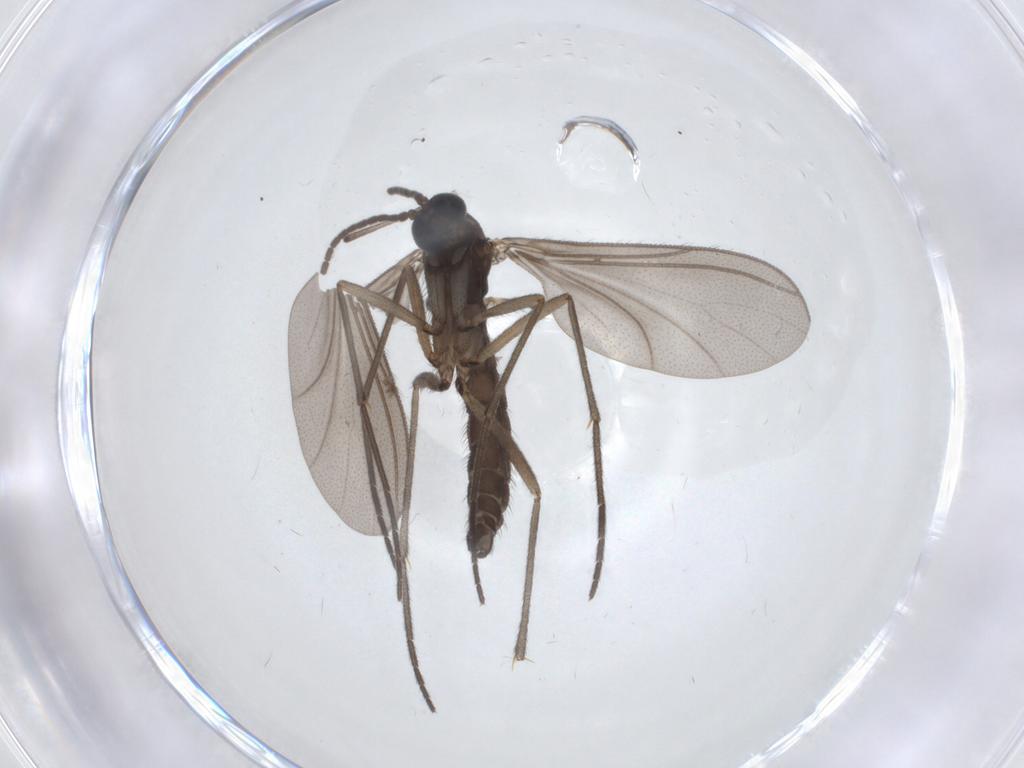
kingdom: Animalia
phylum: Arthropoda
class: Insecta
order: Diptera
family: Sciaridae
